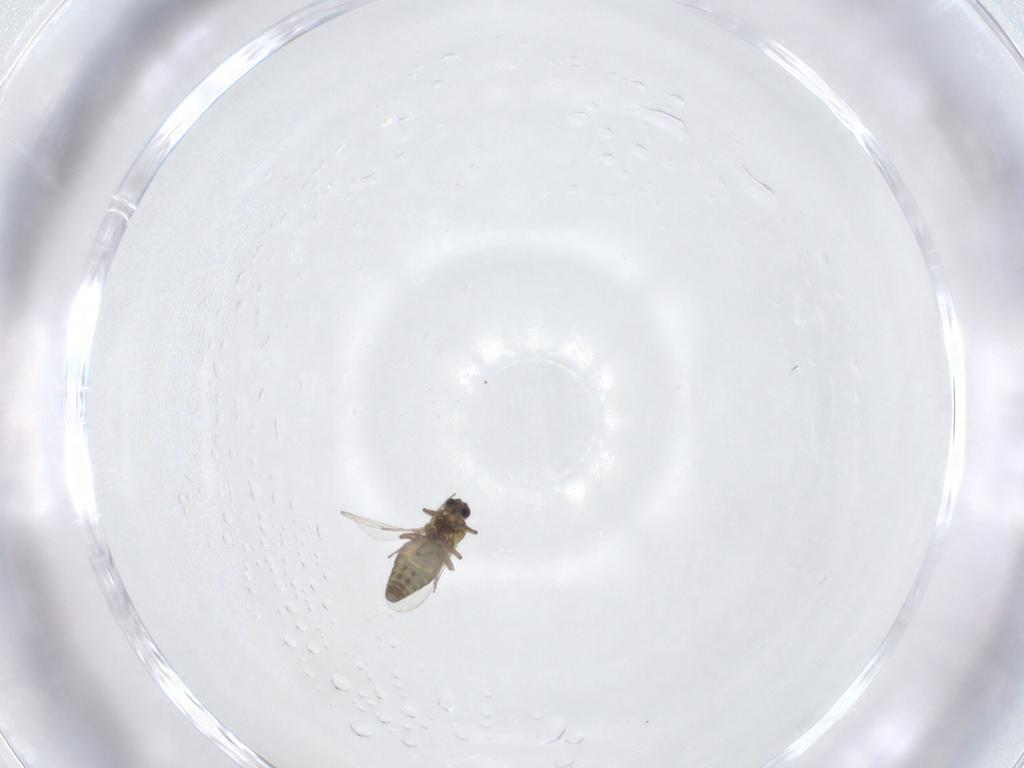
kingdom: Animalia
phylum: Arthropoda
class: Insecta
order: Diptera
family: Ceratopogonidae
